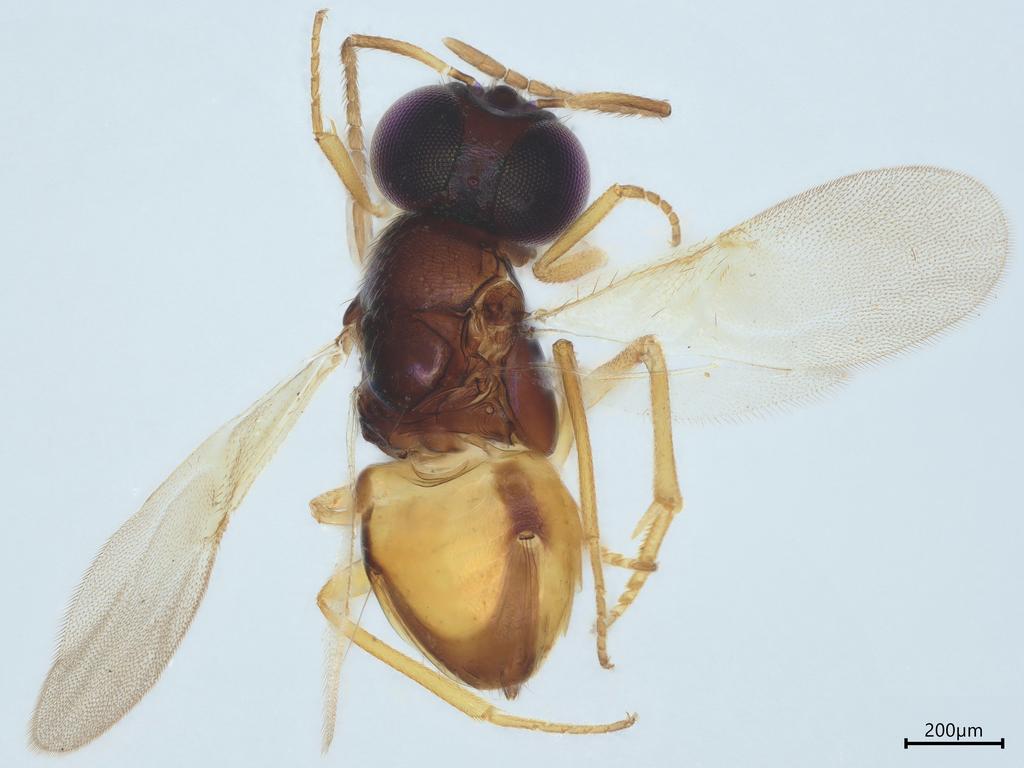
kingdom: Animalia
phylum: Arthropoda
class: Insecta
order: Hymenoptera
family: Encyrtidae
